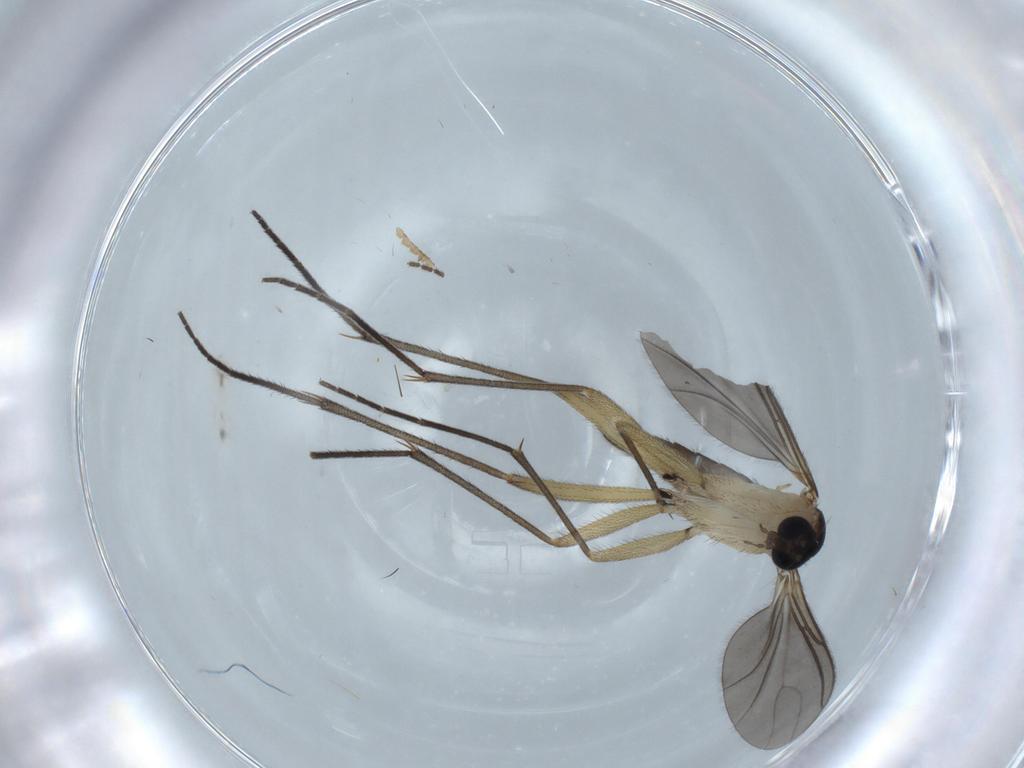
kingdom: Animalia
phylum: Arthropoda
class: Insecta
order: Diptera
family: Sciaridae
